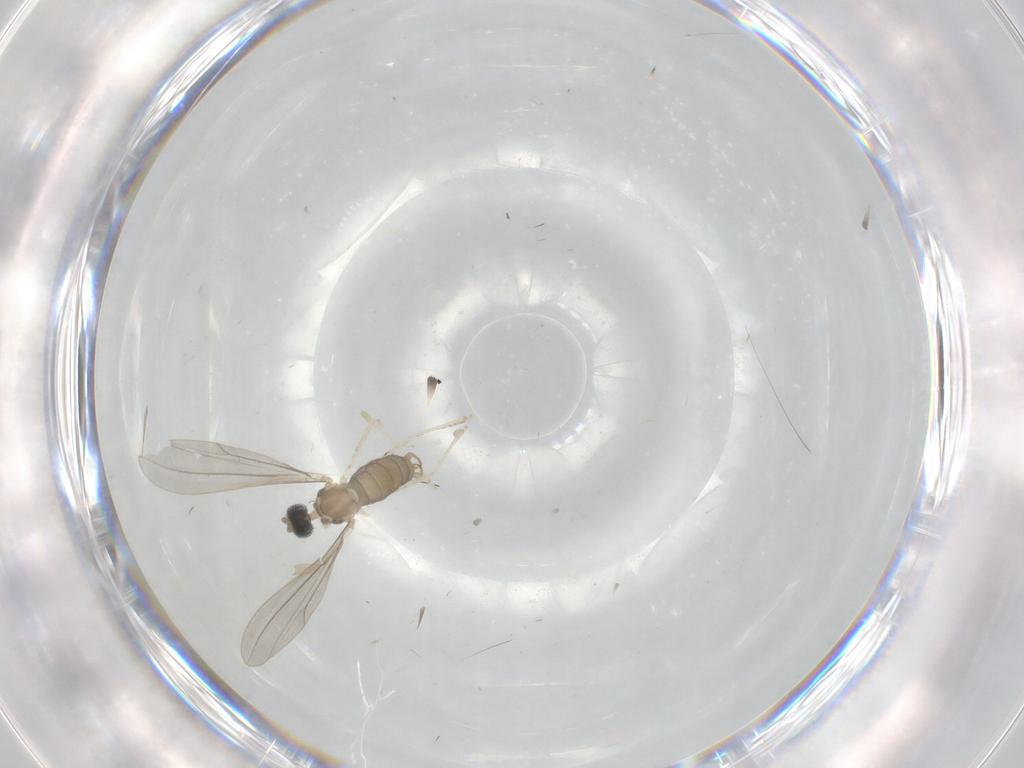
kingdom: Animalia
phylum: Arthropoda
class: Insecta
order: Diptera
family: Cecidomyiidae
